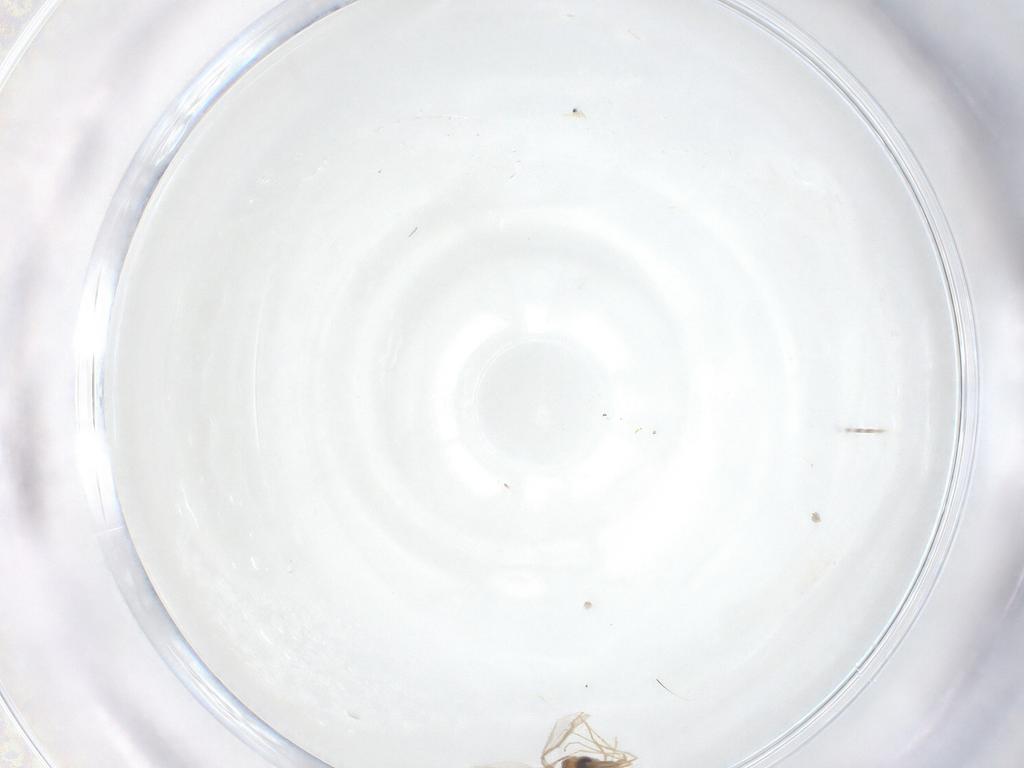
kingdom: Animalia
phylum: Arthropoda
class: Insecta
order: Diptera
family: Cecidomyiidae
